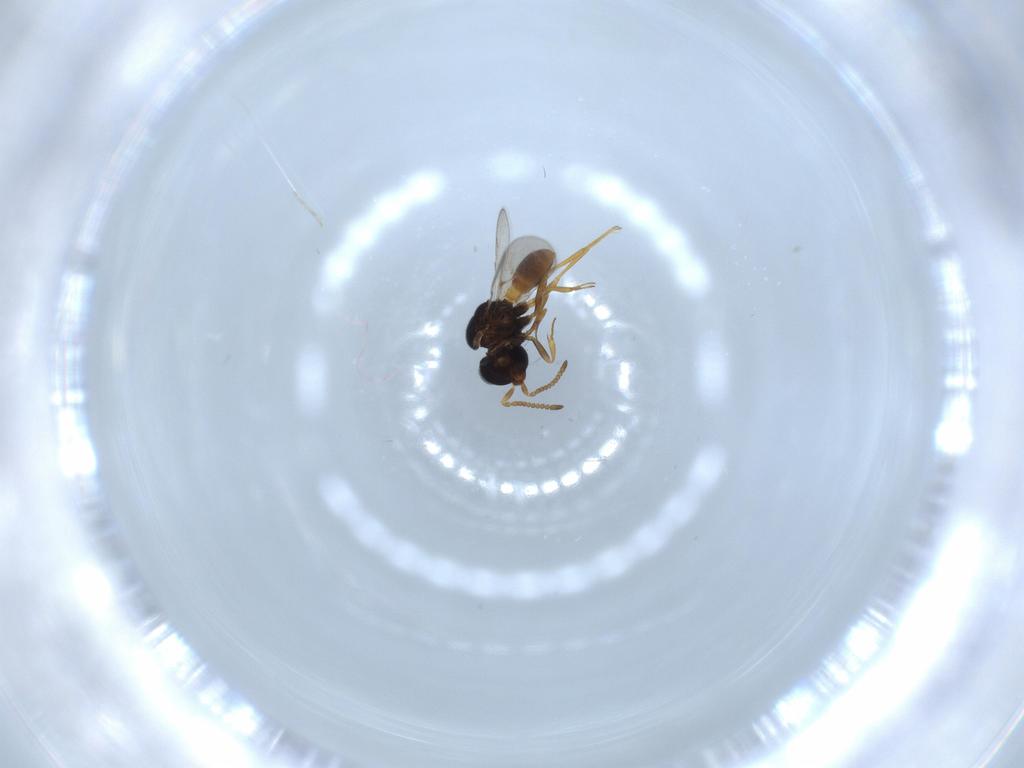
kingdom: Animalia
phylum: Arthropoda
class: Insecta
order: Hymenoptera
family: Scelionidae
